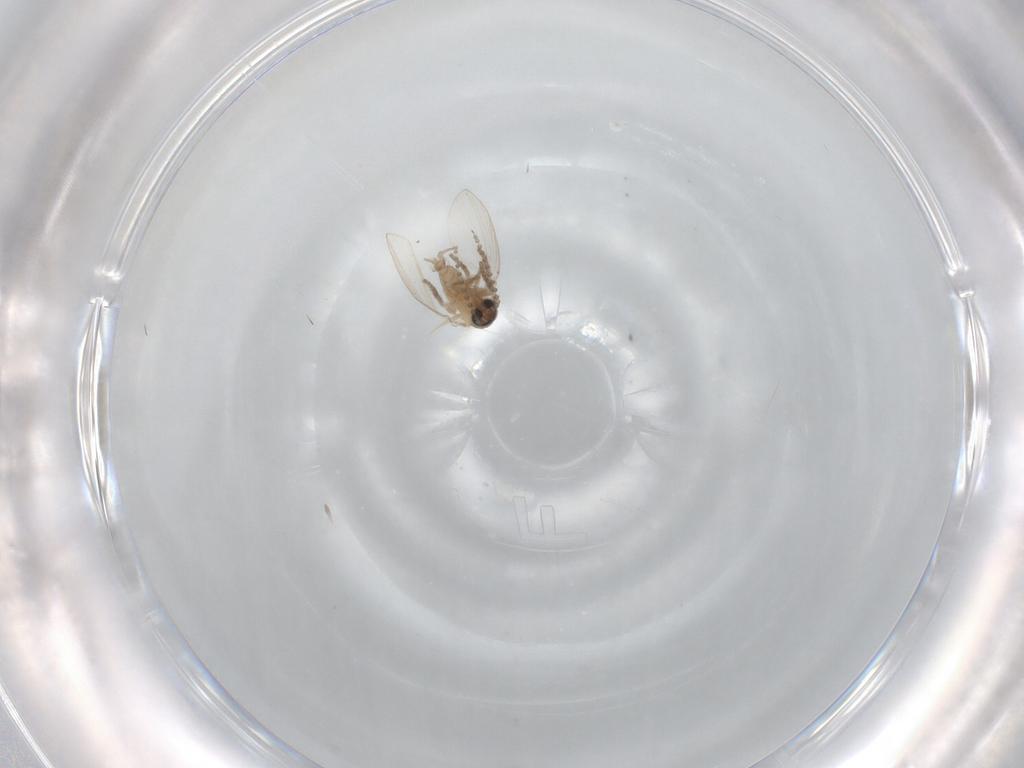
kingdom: Animalia
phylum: Arthropoda
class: Insecta
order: Diptera
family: Psychodidae
